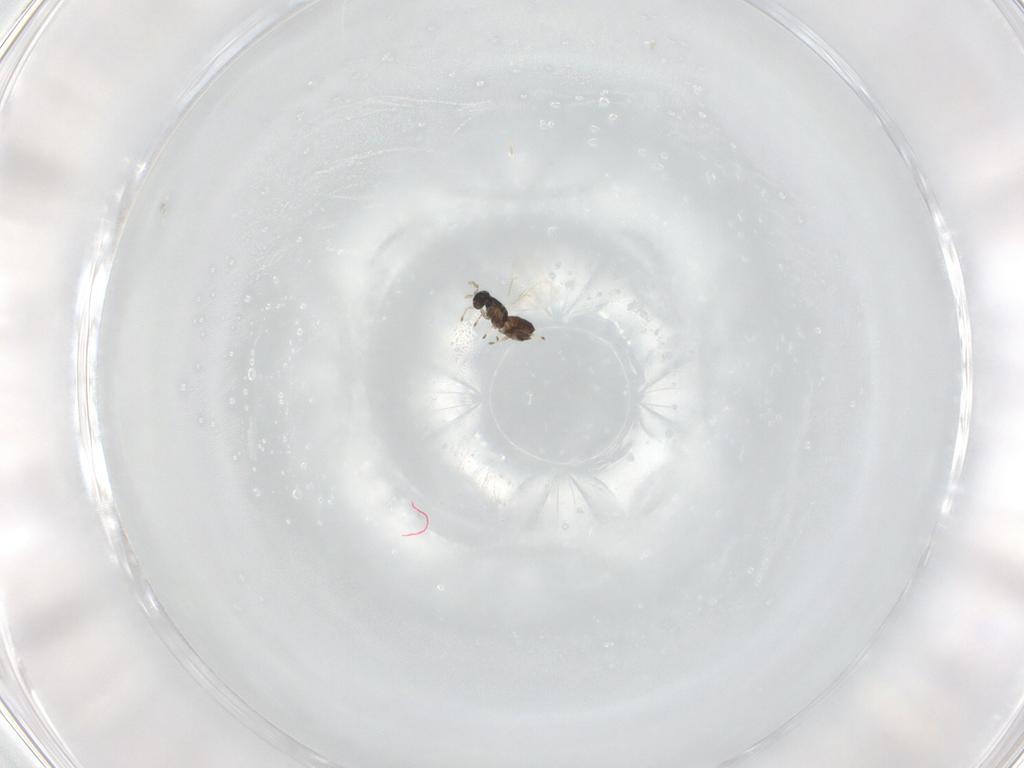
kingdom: Animalia
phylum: Arthropoda
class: Insecta
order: Hymenoptera
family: Eulophidae
